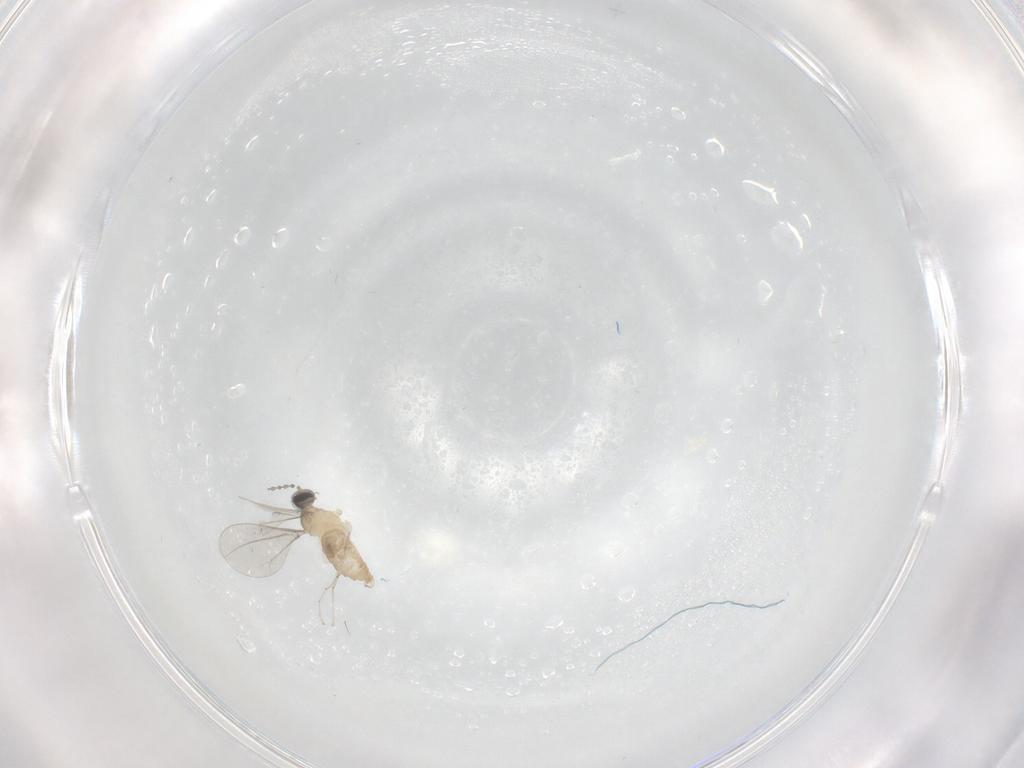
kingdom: Animalia
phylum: Arthropoda
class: Insecta
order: Diptera
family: Cecidomyiidae
